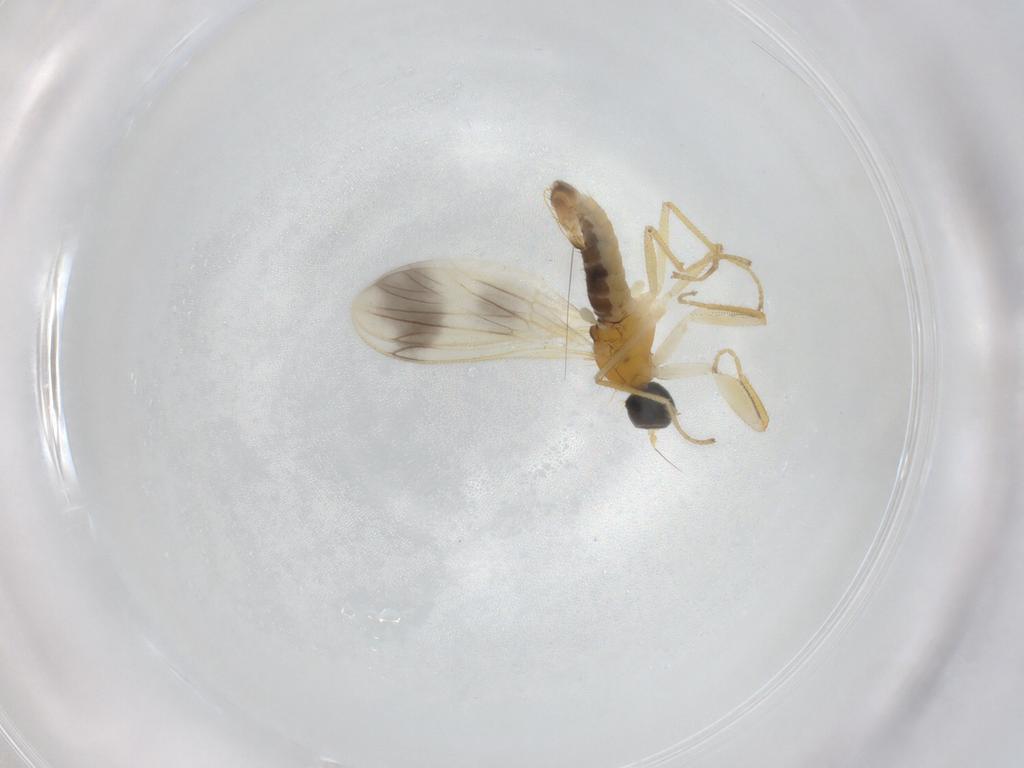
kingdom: Animalia
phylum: Arthropoda
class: Insecta
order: Diptera
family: Empididae
